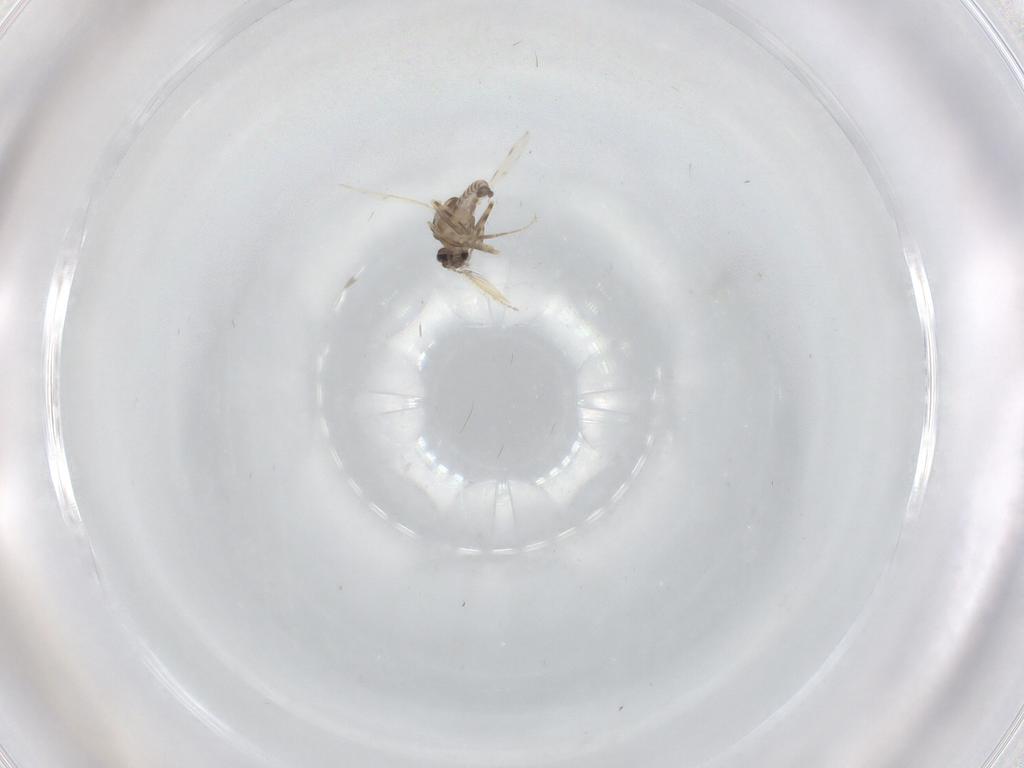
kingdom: Animalia
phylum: Arthropoda
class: Insecta
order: Diptera
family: Ceratopogonidae
